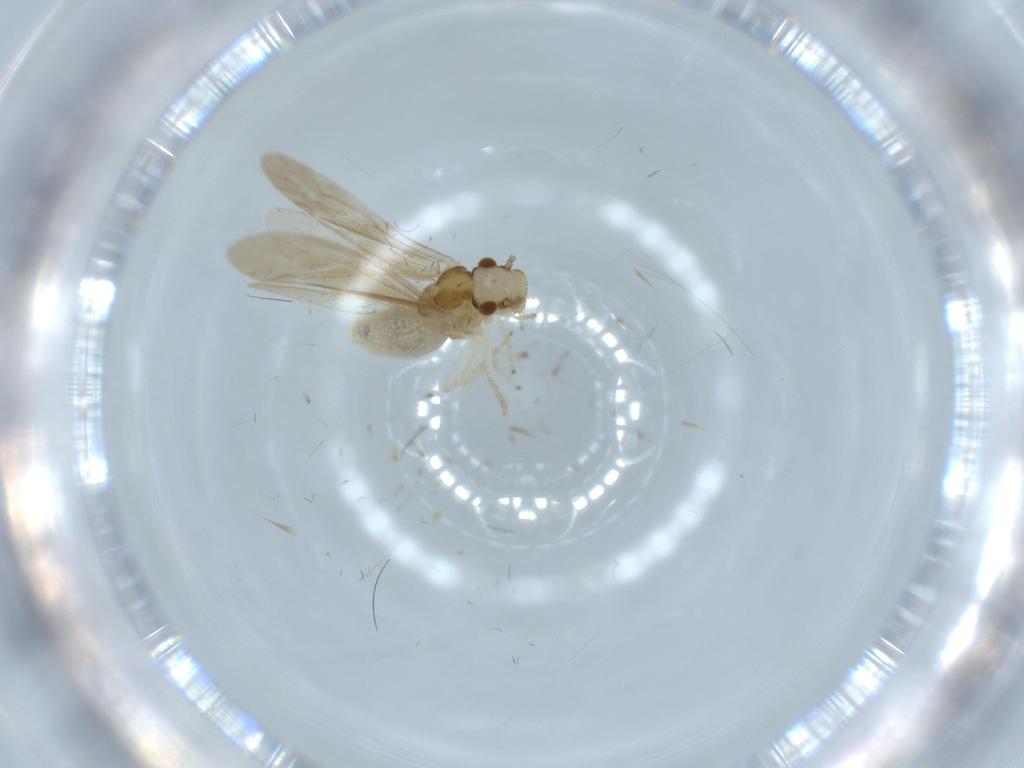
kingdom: Animalia
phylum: Arthropoda
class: Insecta
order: Psocodea
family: Caeciliusidae
